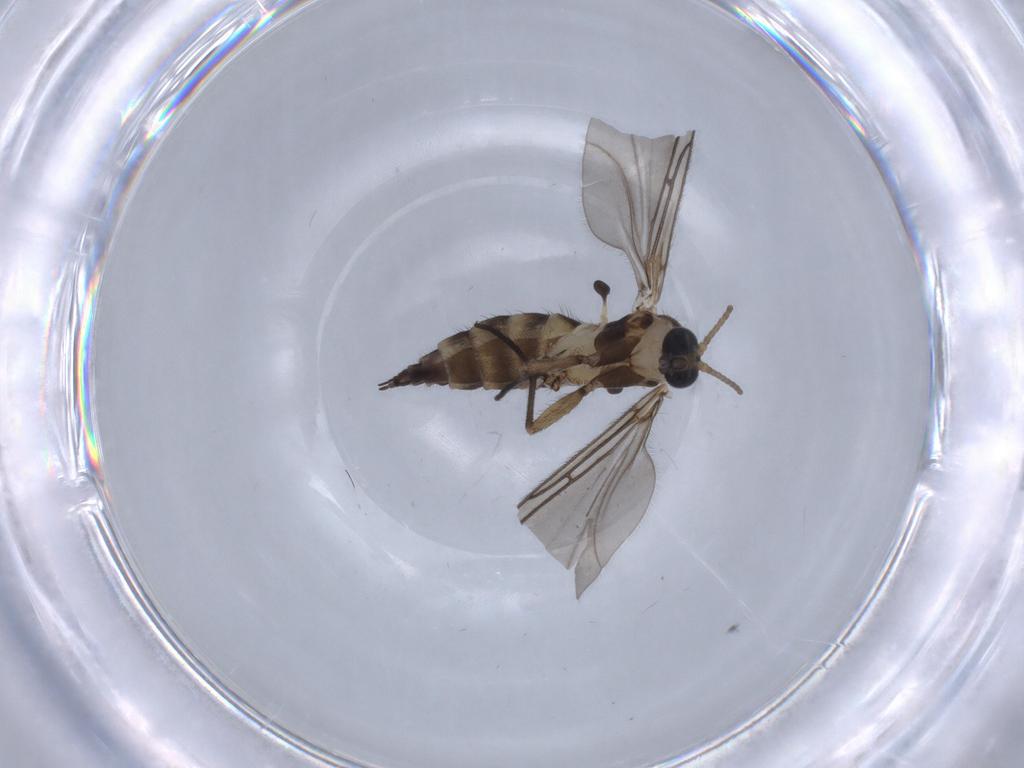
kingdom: Animalia
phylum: Arthropoda
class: Insecta
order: Diptera
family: Sciaridae
